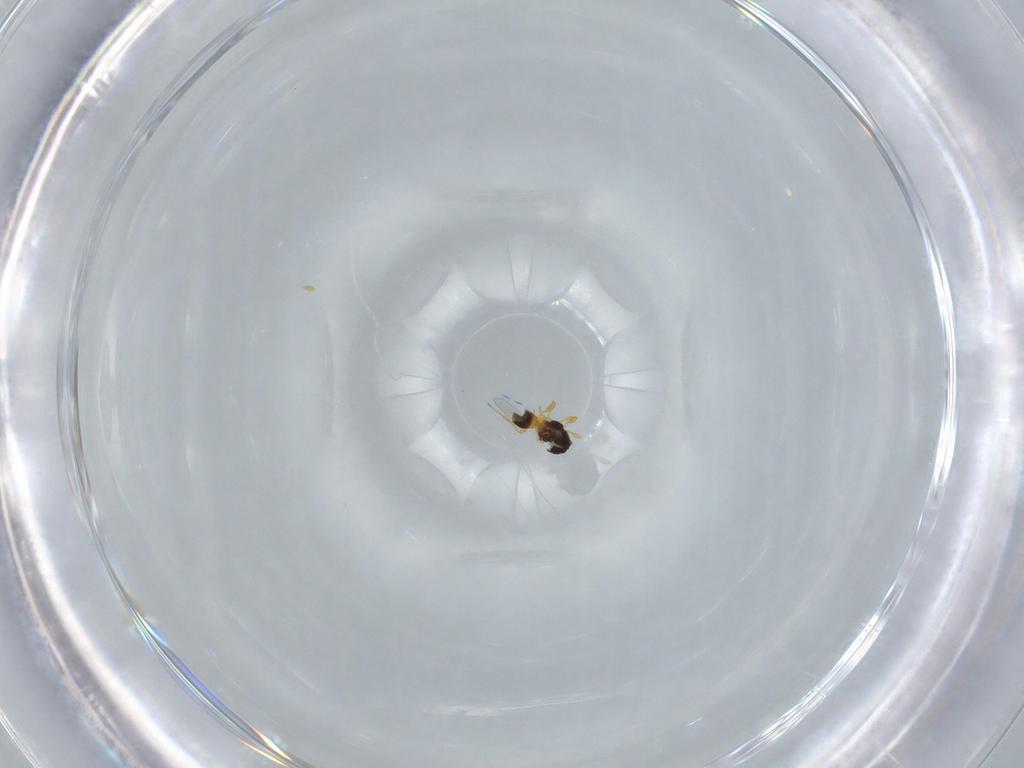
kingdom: Animalia
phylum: Arthropoda
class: Insecta
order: Hymenoptera
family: Platygastridae
